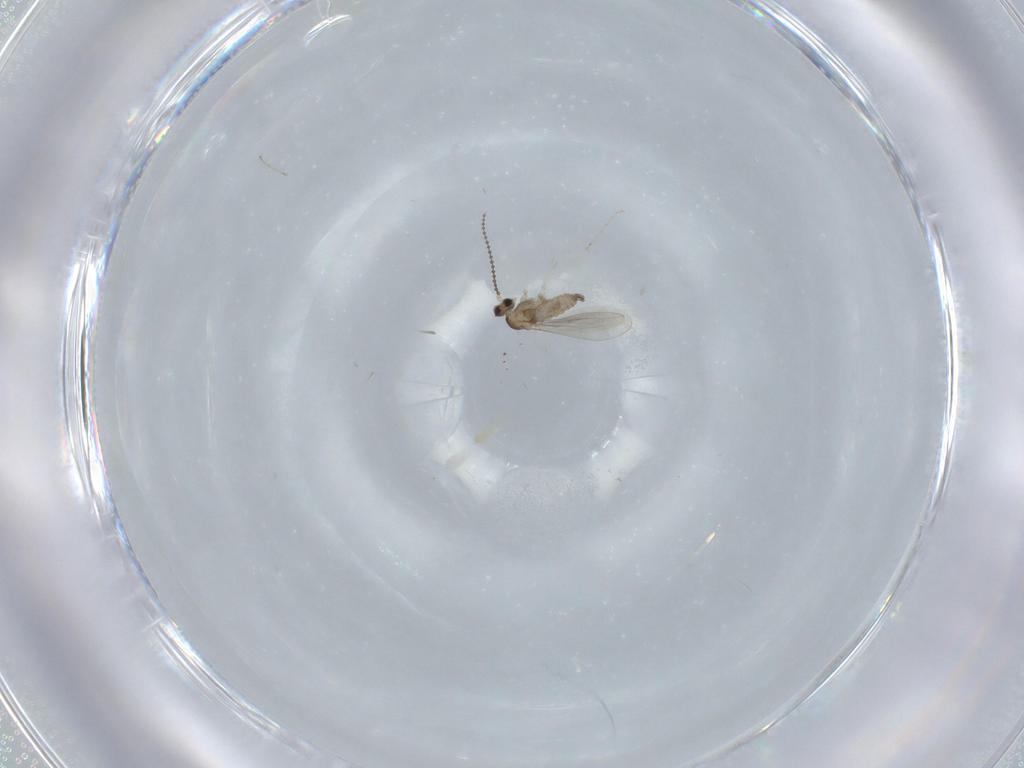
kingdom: Animalia
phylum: Arthropoda
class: Insecta
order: Diptera
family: Cecidomyiidae
